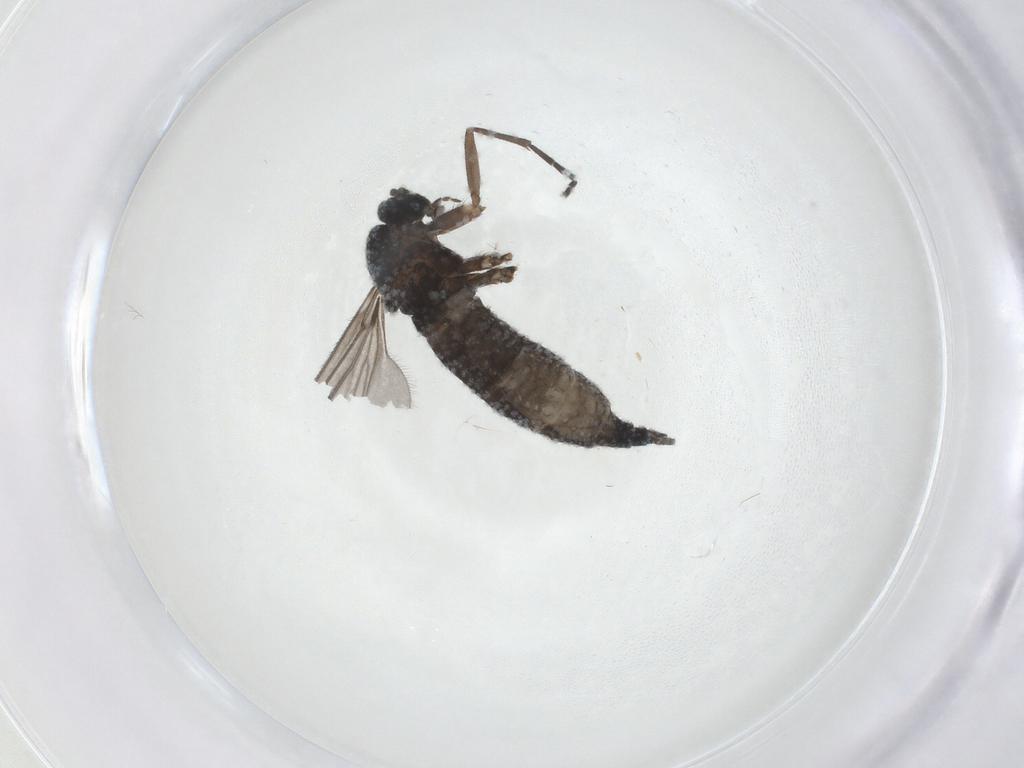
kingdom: Animalia
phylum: Arthropoda
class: Insecta
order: Diptera
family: Sciaridae
